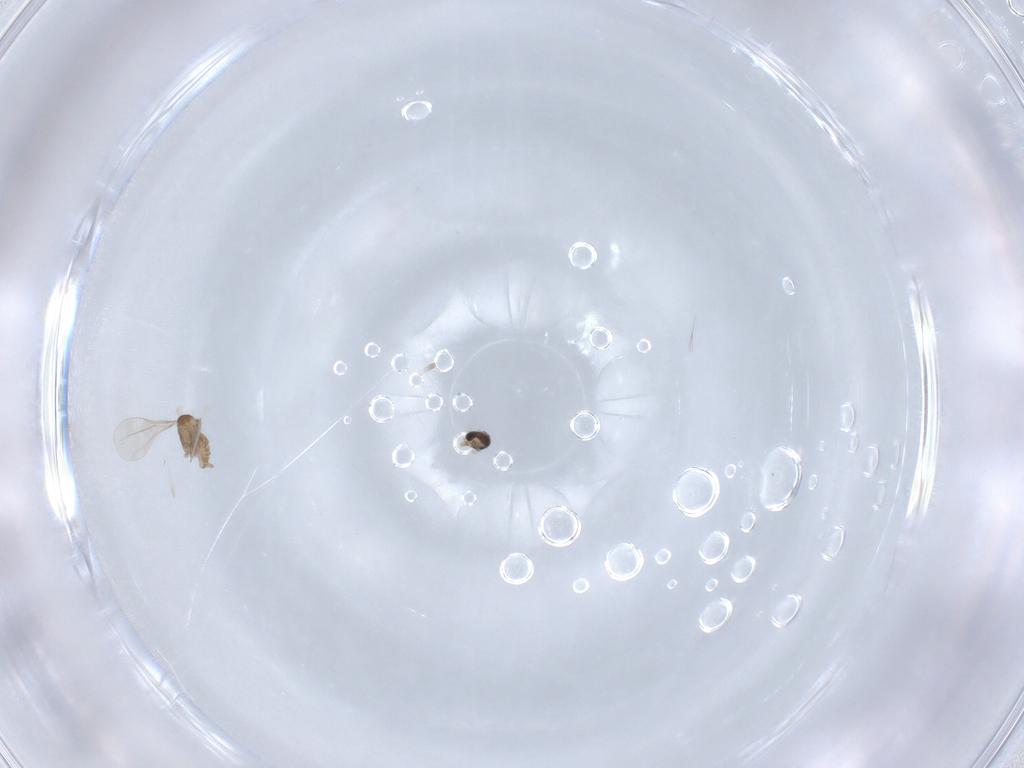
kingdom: Animalia
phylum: Arthropoda
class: Insecta
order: Diptera
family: Cecidomyiidae
